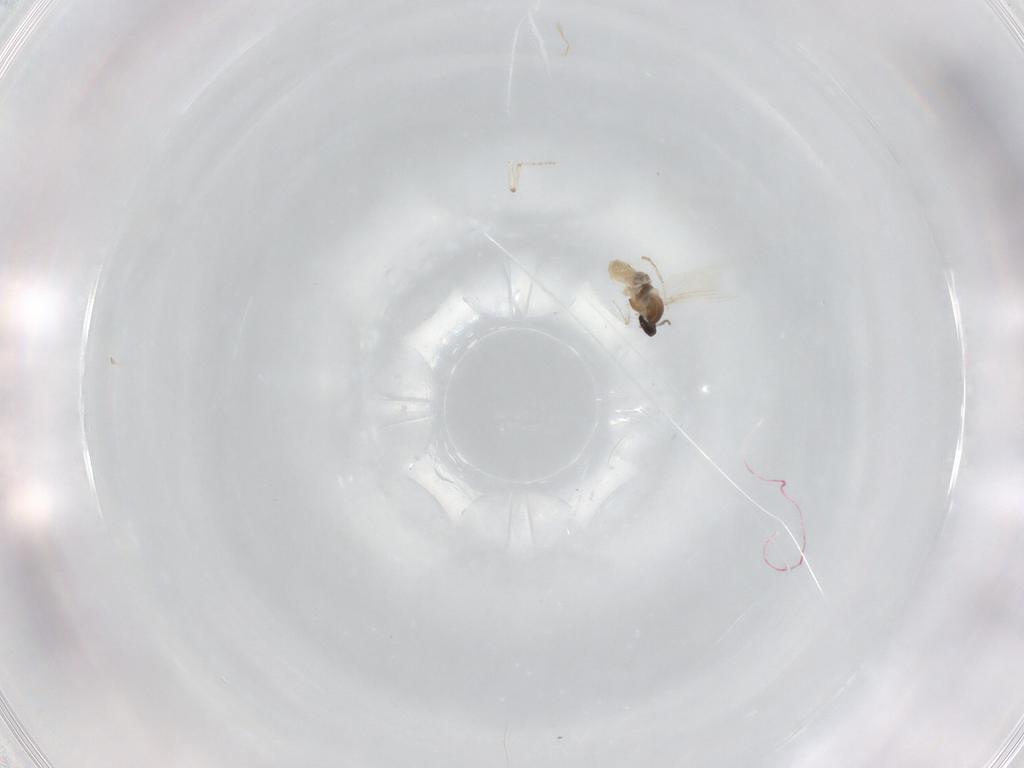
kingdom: Animalia
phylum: Arthropoda
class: Insecta
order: Diptera
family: Cecidomyiidae
